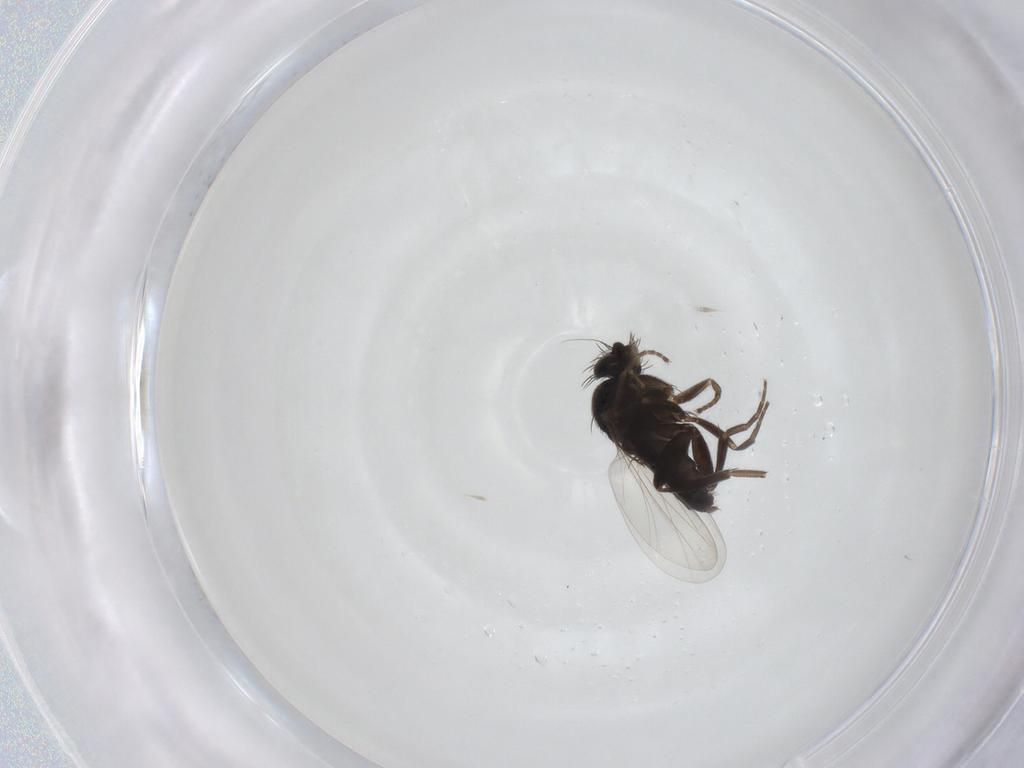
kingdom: Animalia
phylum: Arthropoda
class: Insecta
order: Diptera
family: Phoridae
